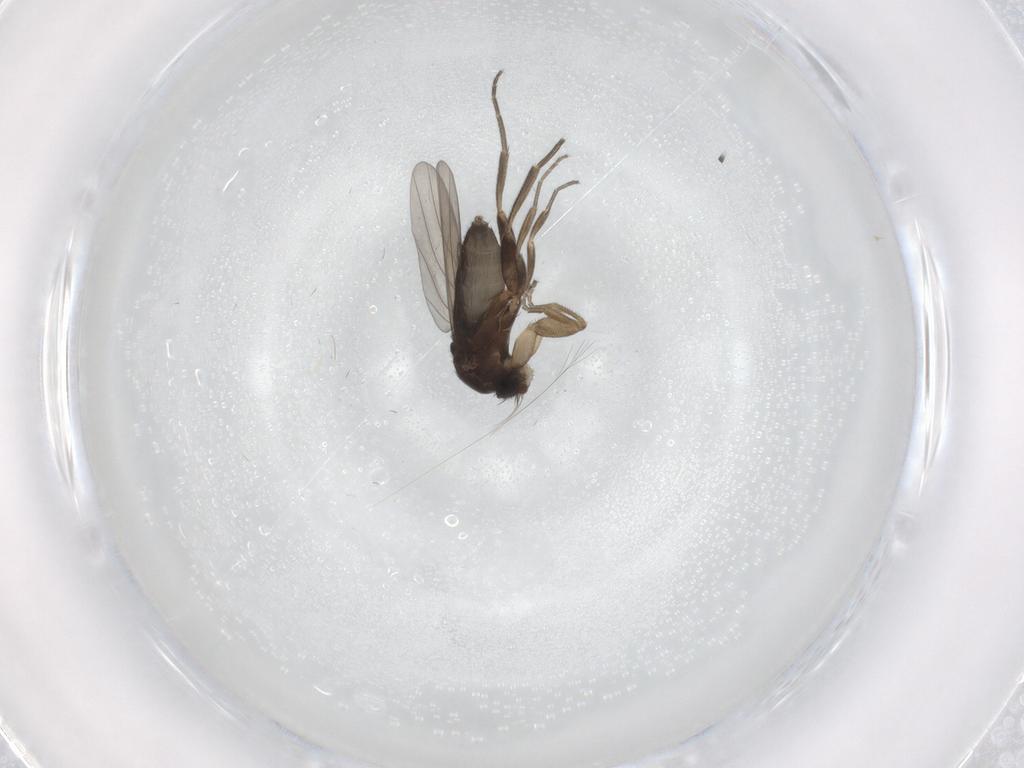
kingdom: Animalia
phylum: Arthropoda
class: Insecta
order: Diptera
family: Phoridae
